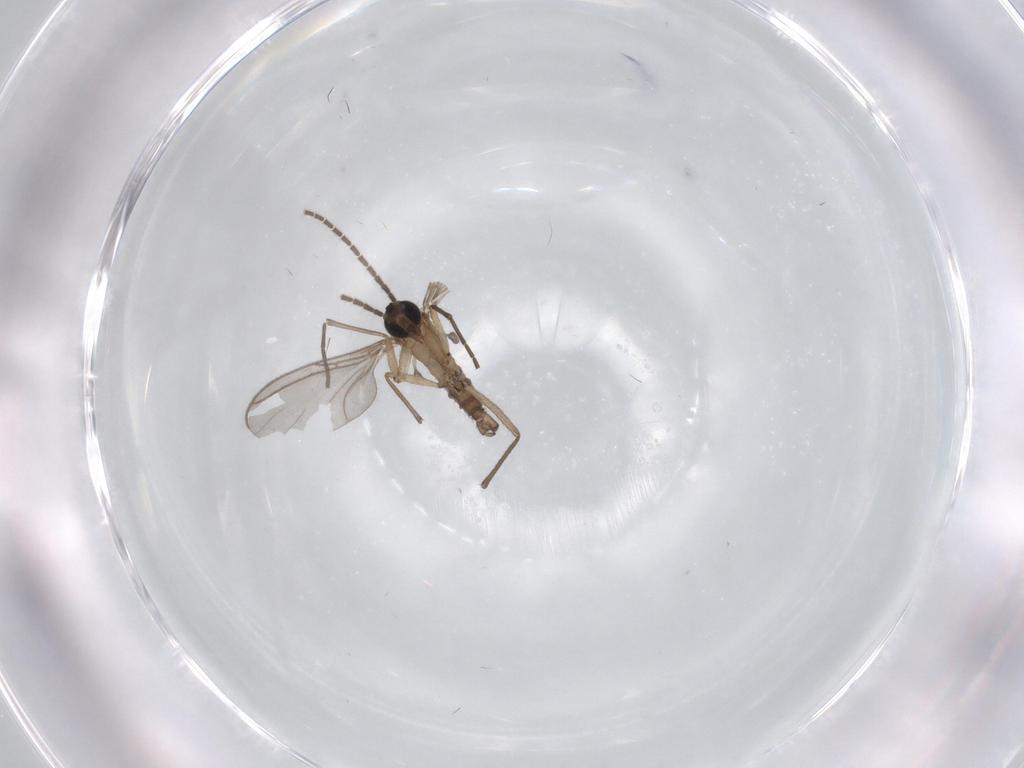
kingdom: Animalia
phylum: Arthropoda
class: Insecta
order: Diptera
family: Sciaridae
